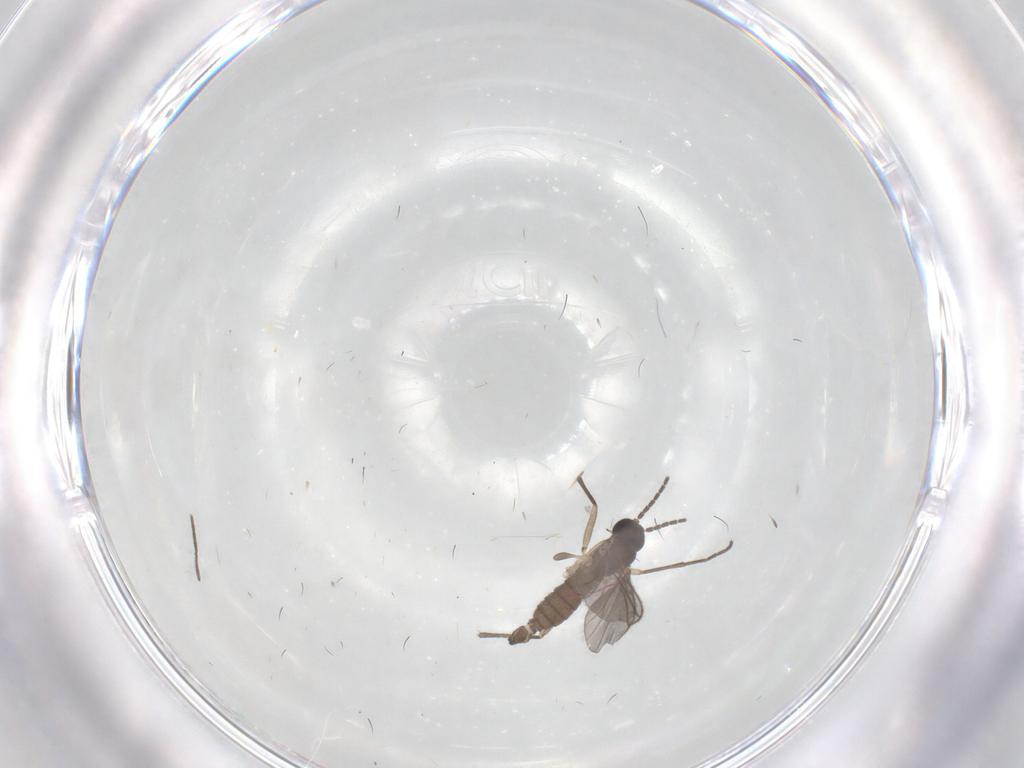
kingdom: Animalia
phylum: Arthropoda
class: Insecta
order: Diptera
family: Sciaridae
